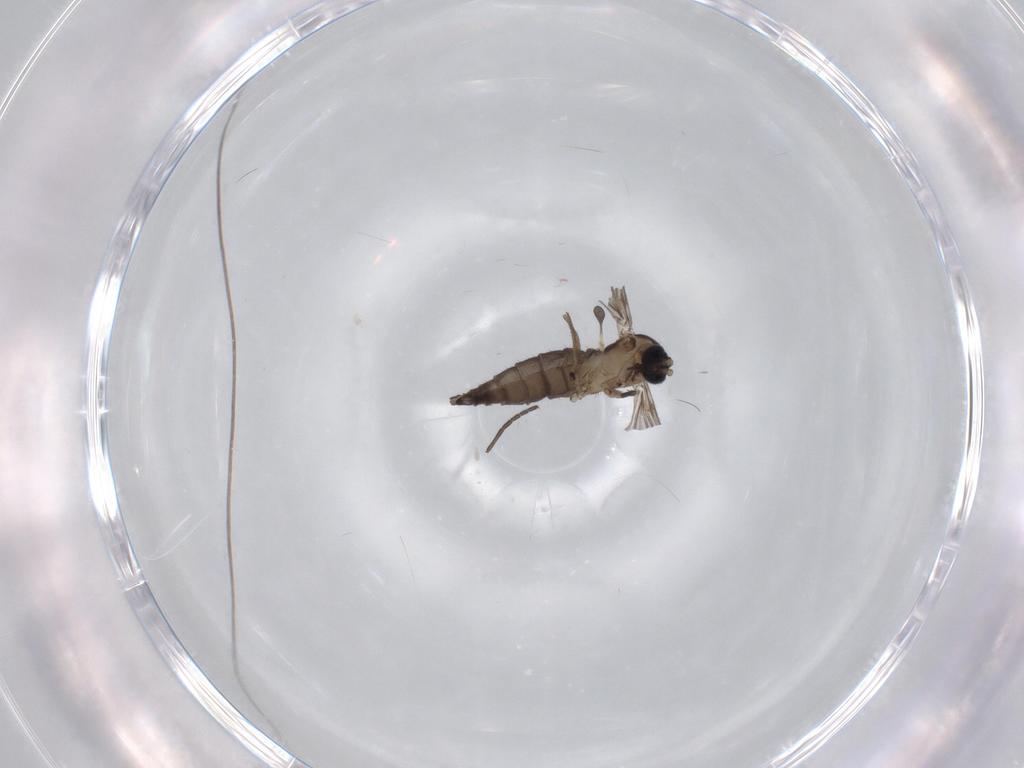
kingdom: Animalia
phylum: Arthropoda
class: Insecta
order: Diptera
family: Sciaridae
